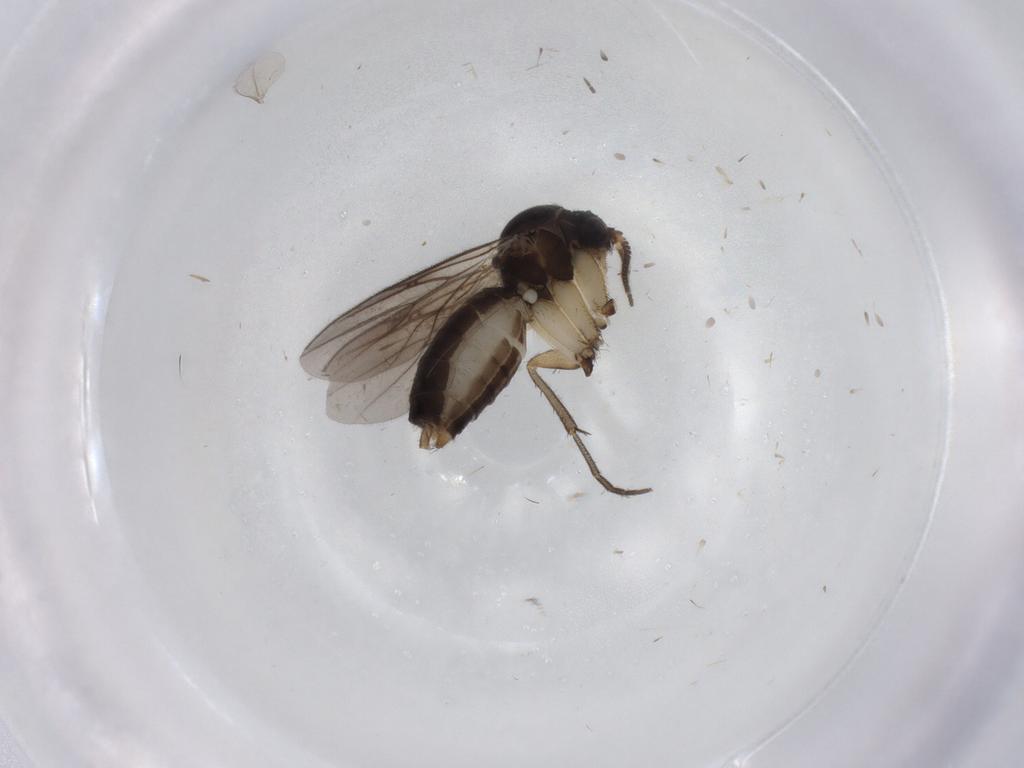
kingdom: Animalia
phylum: Arthropoda
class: Insecta
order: Diptera
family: Mycetophilidae
